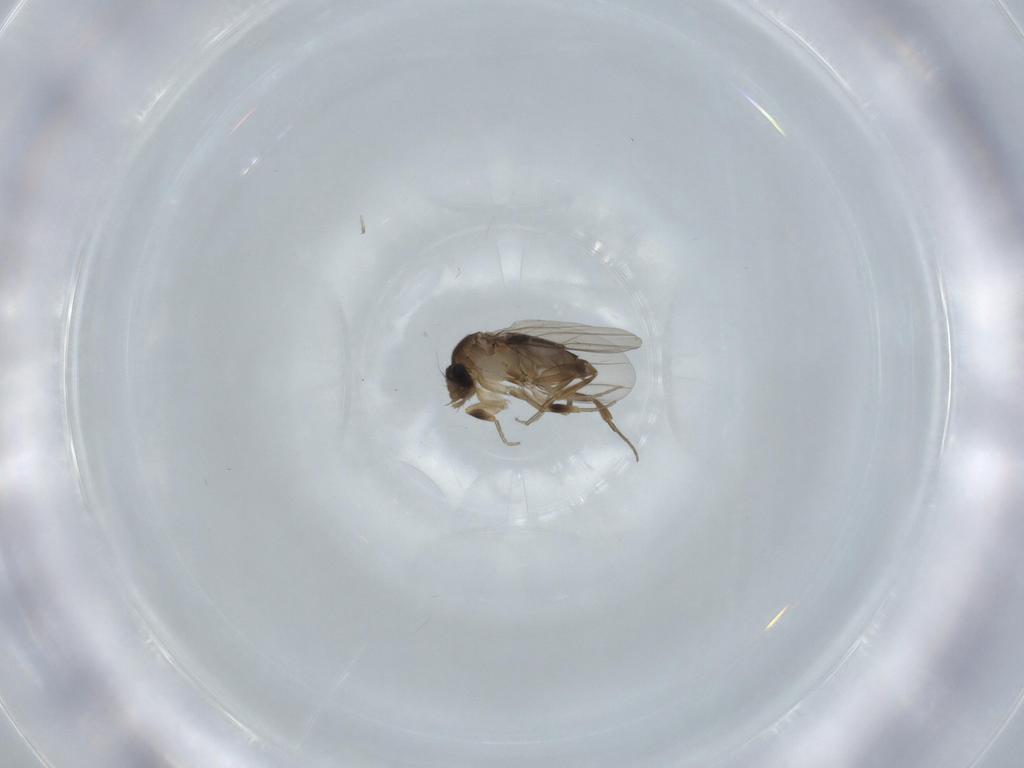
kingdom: Animalia
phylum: Arthropoda
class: Insecta
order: Diptera
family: Phoridae
